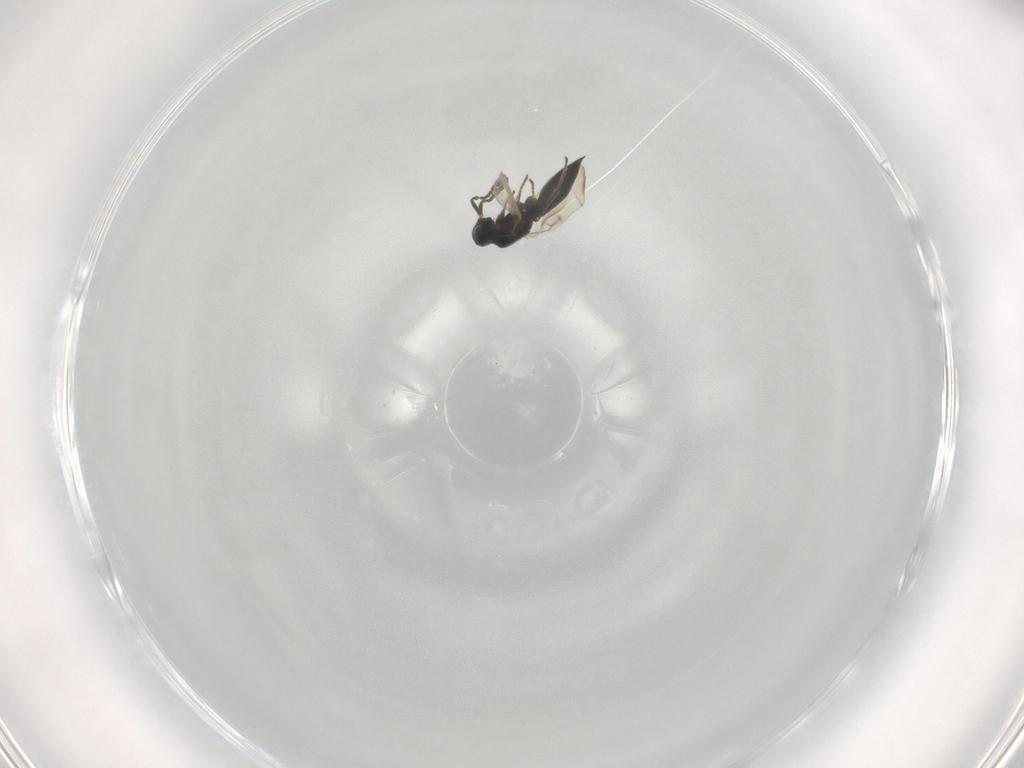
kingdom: Animalia
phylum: Arthropoda
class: Insecta
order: Hymenoptera
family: Platygastridae
